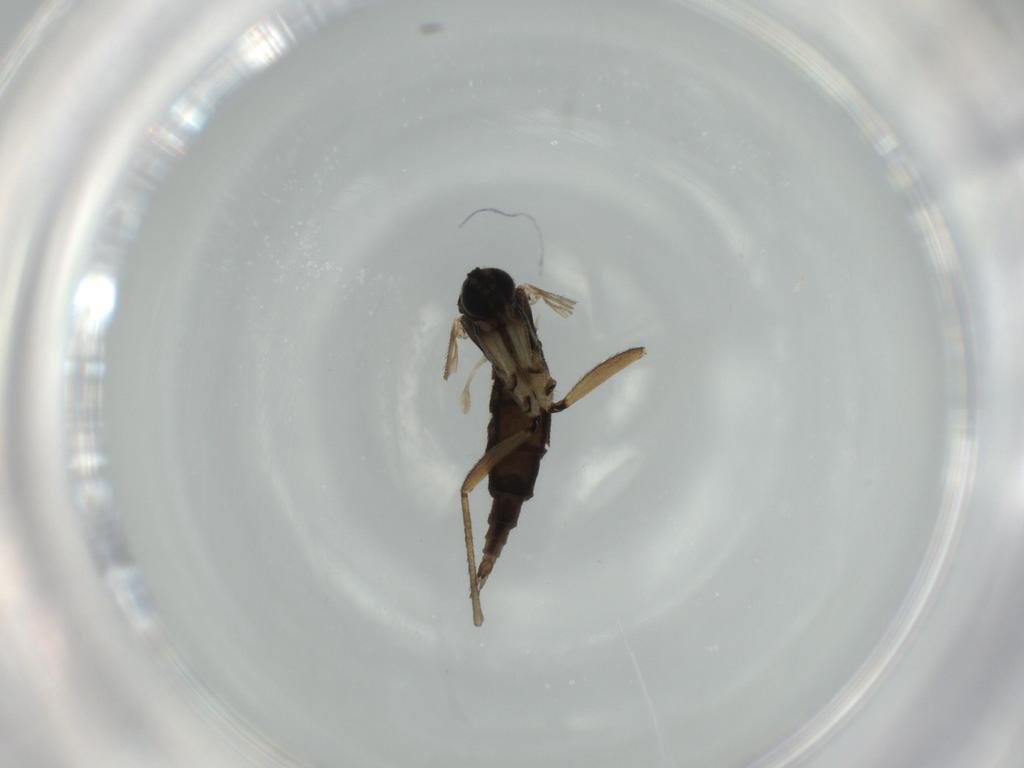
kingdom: Animalia
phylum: Arthropoda
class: Insecta
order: Diptera
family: Sciaridae
